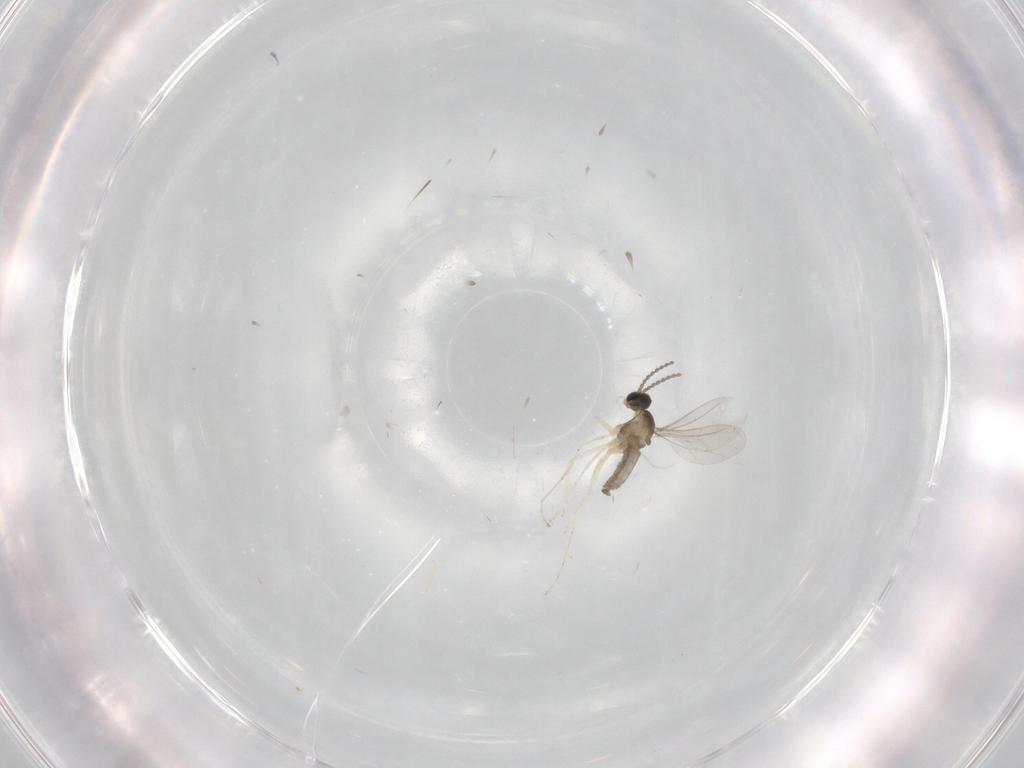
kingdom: Animalia
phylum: Arthropoda
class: Insecta
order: Diptera
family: Cecidomyiidae
